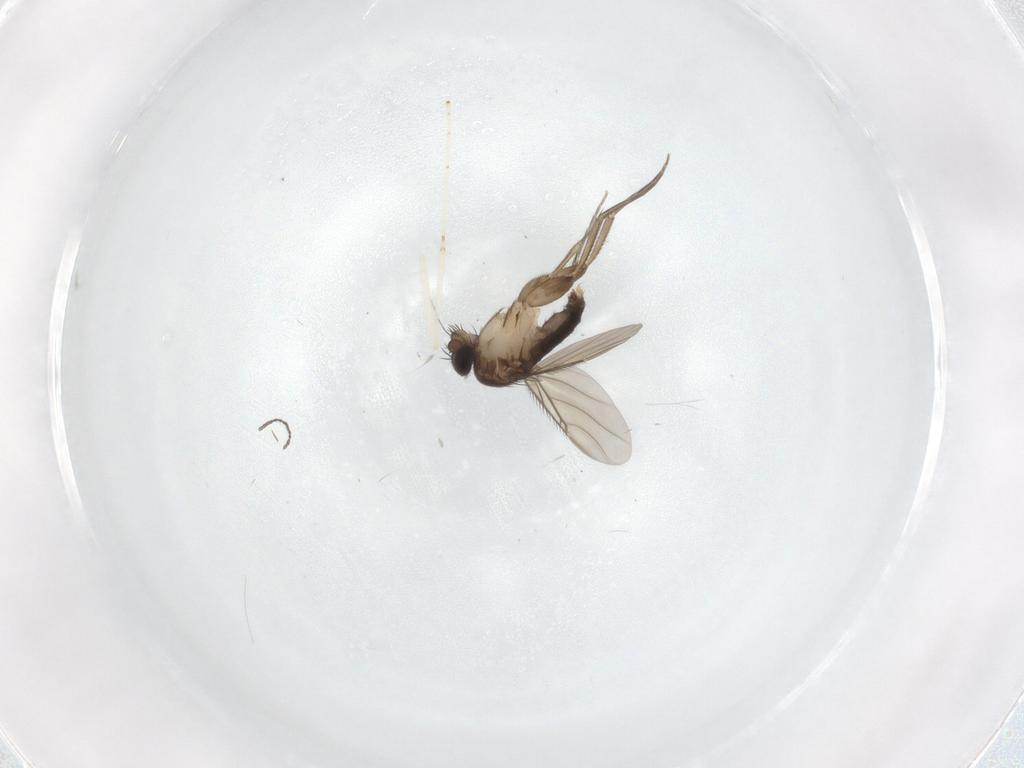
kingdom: Animalia
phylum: Arthropoda
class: Insecta
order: Diptera
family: Phoridae
